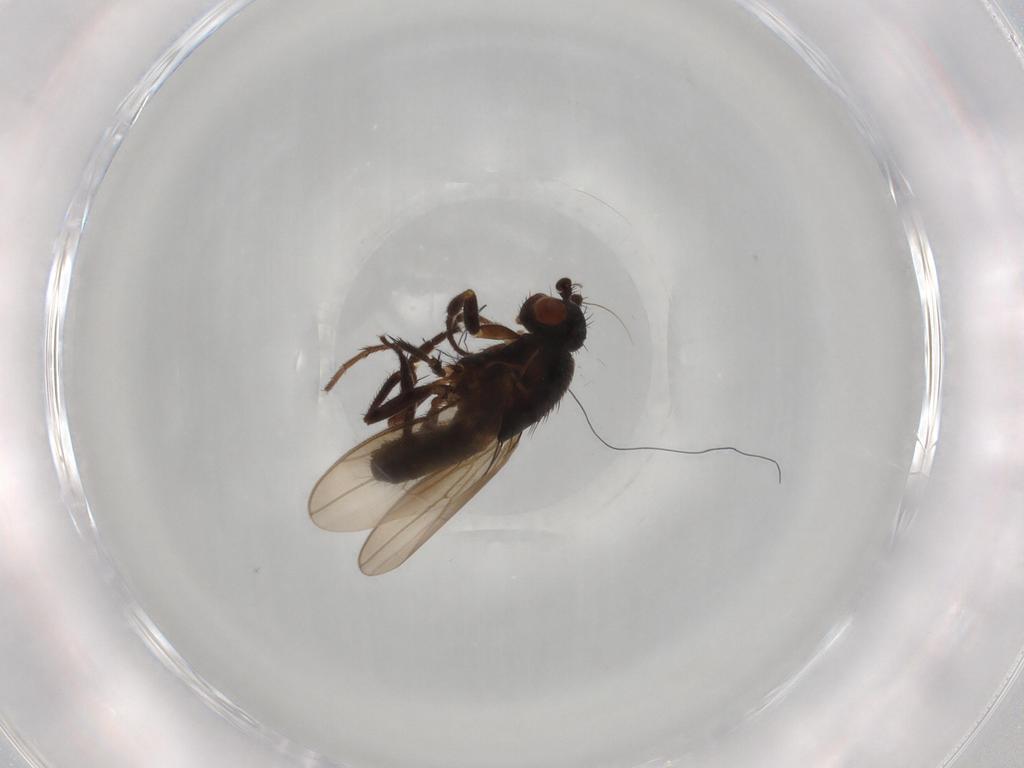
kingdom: Animalia
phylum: Arthropoda
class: Insecta
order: Diptera
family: Sphaeroceridae
